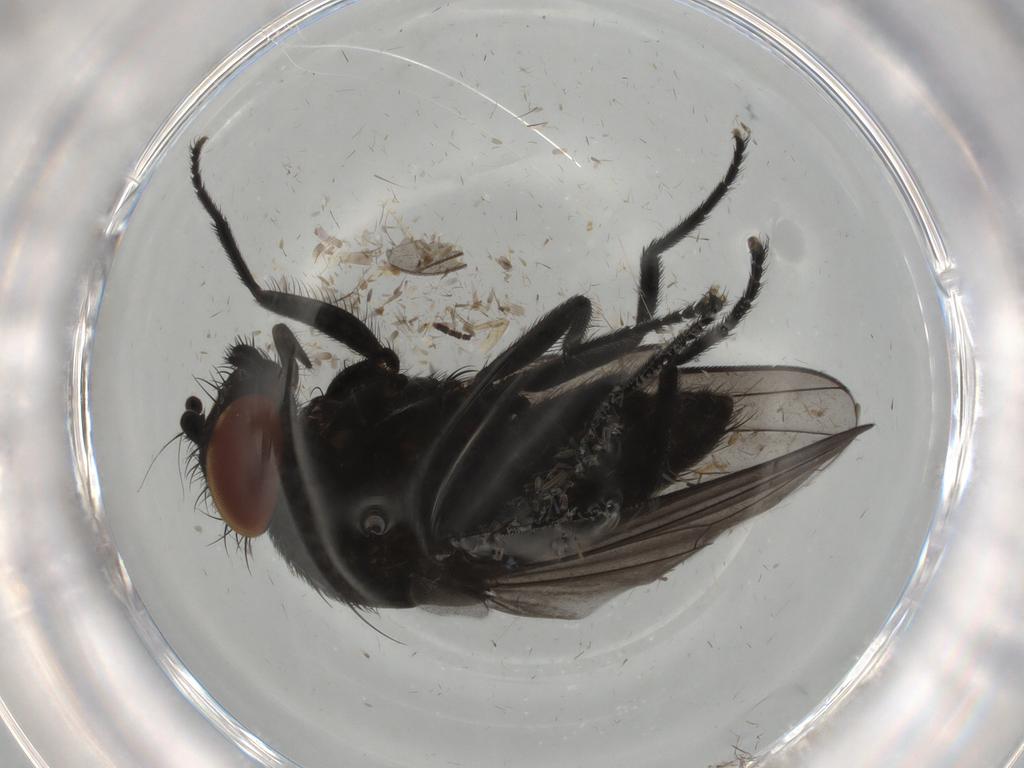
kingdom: Animalia
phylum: Arthropoda
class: Insecta
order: Diptera
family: Milichiidae
